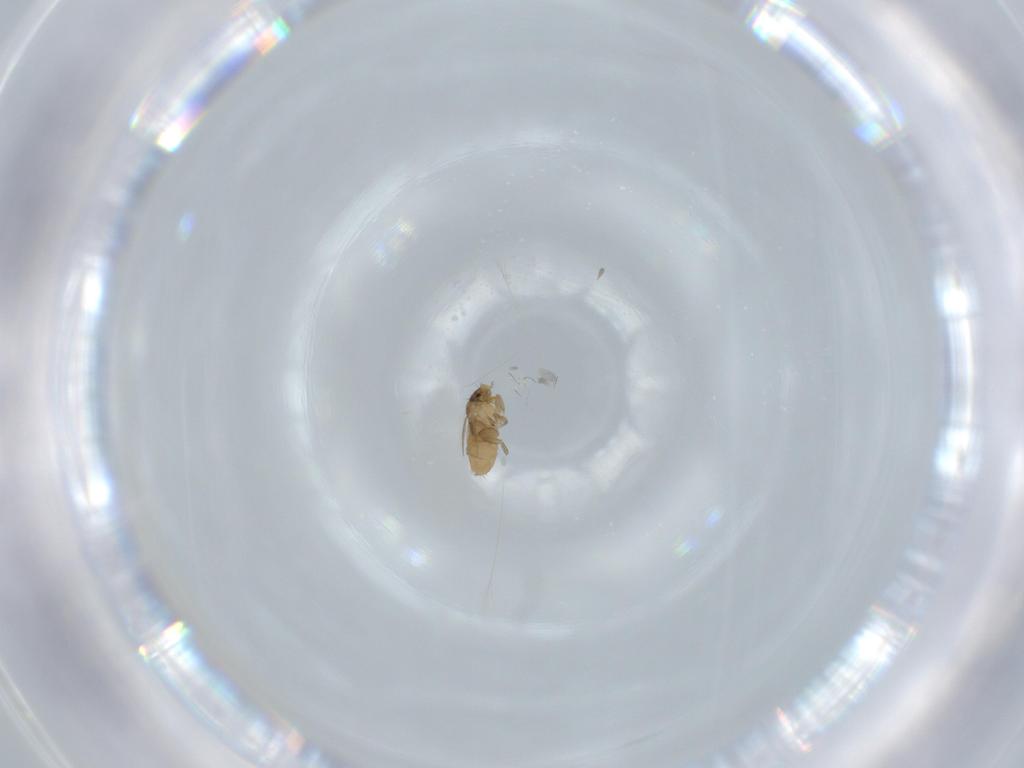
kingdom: Animalia
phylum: Arthropoda
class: Insecta
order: Diptera
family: Phoridae
